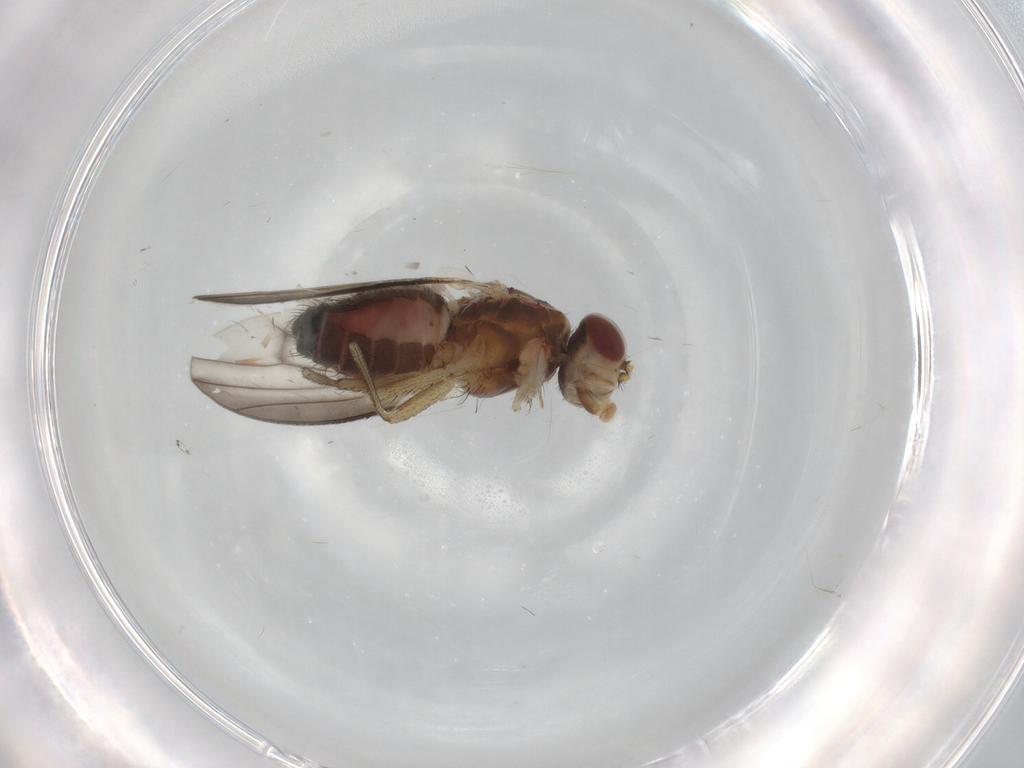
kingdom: Animalia
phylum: Arthropoda
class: Insecta
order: Diptera
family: Heleomyzidae
